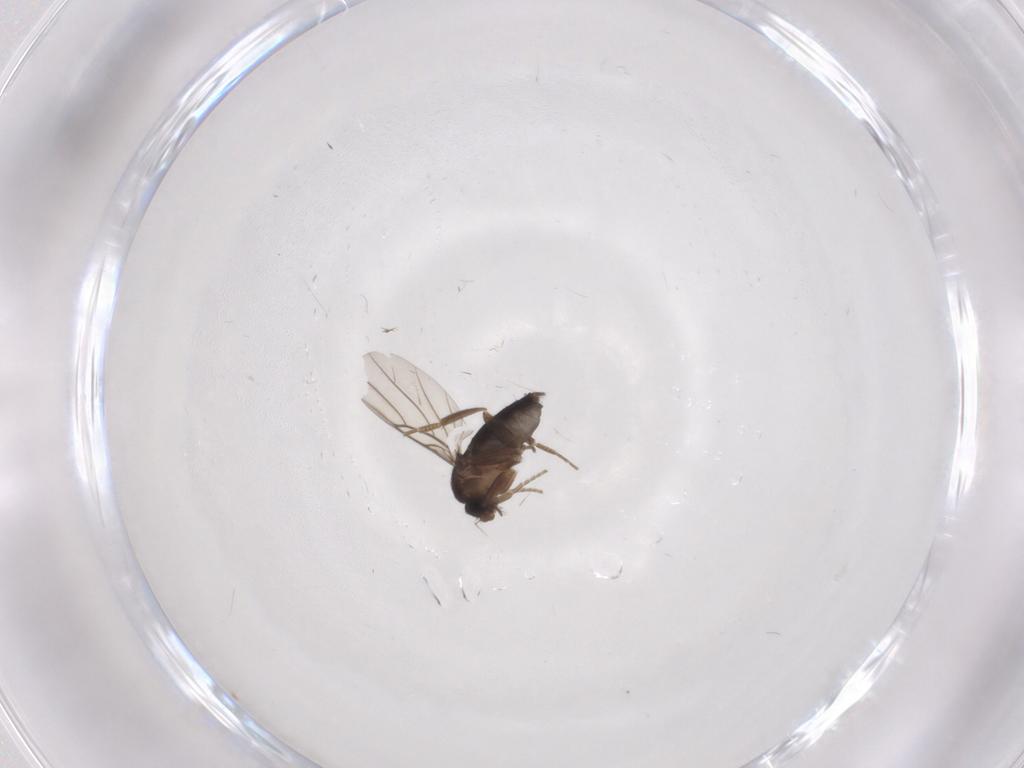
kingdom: Animalia
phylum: Arthropoda
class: Insecta
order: Diptera
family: Phoridae
